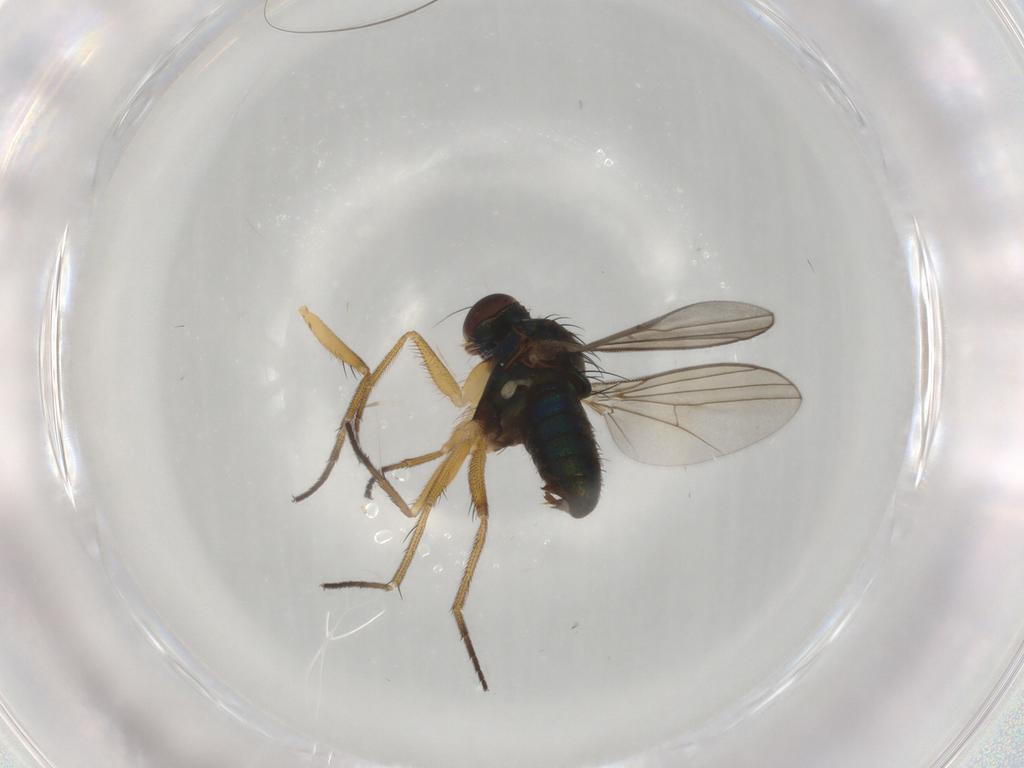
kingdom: Animalia
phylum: Arthropoda
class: Insecta
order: Diptera
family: Dolichopodidae
